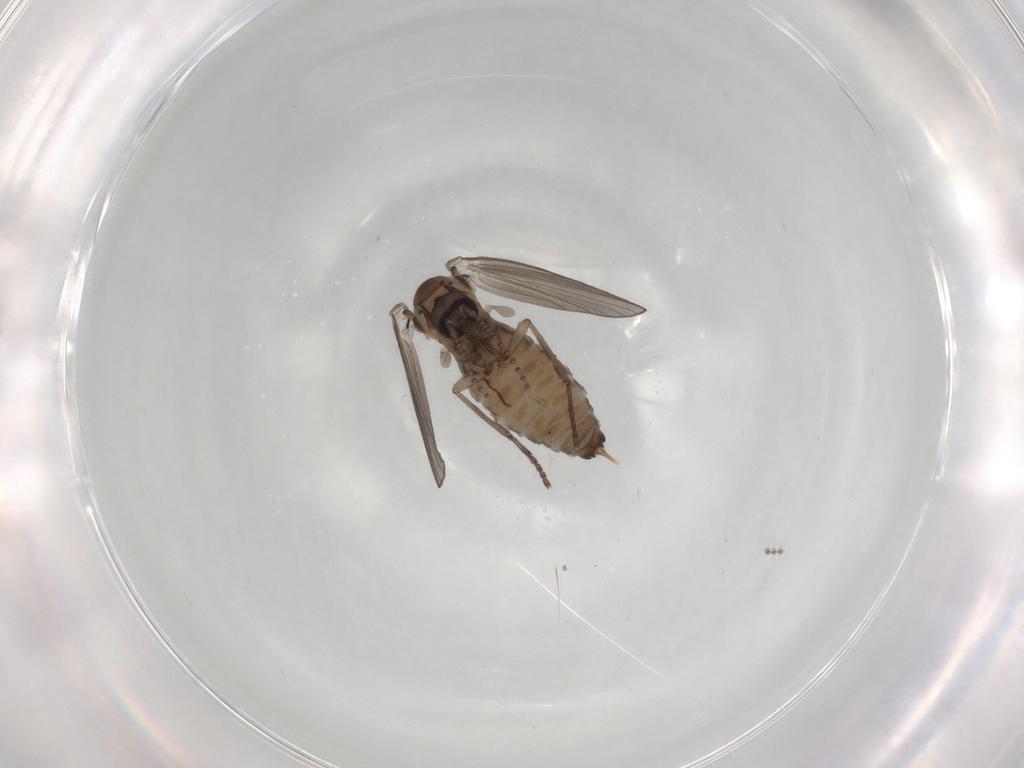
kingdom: Animalia
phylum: Arthropoda
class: Insecta
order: Diptera
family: Psychodidae
